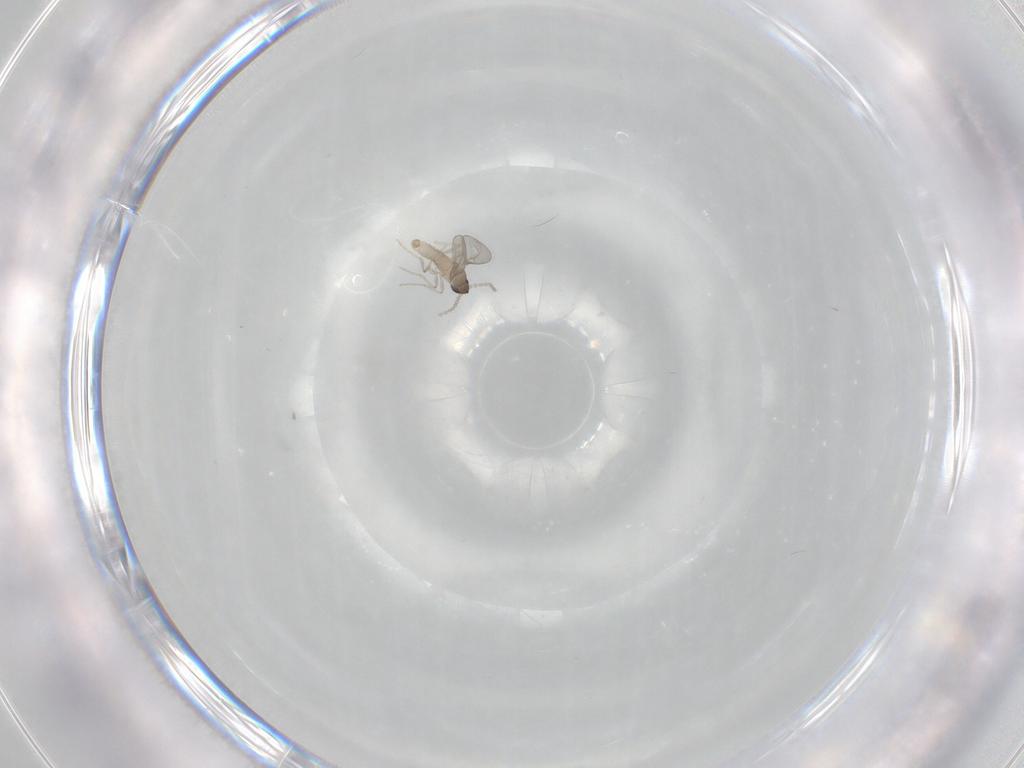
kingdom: Animalia
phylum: Arthropoda
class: Insecta
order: Diptera
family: Cecidomyiidae
